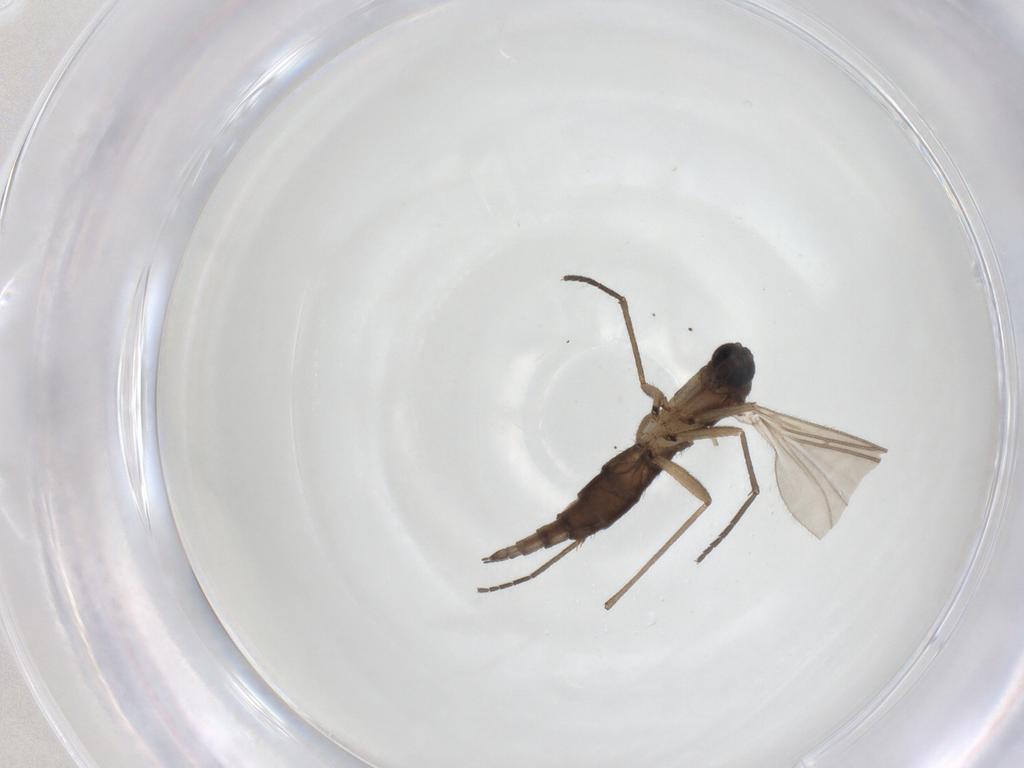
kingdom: Animalia
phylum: Arthropoda
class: Insecta
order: Diptera
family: Sciaridae
